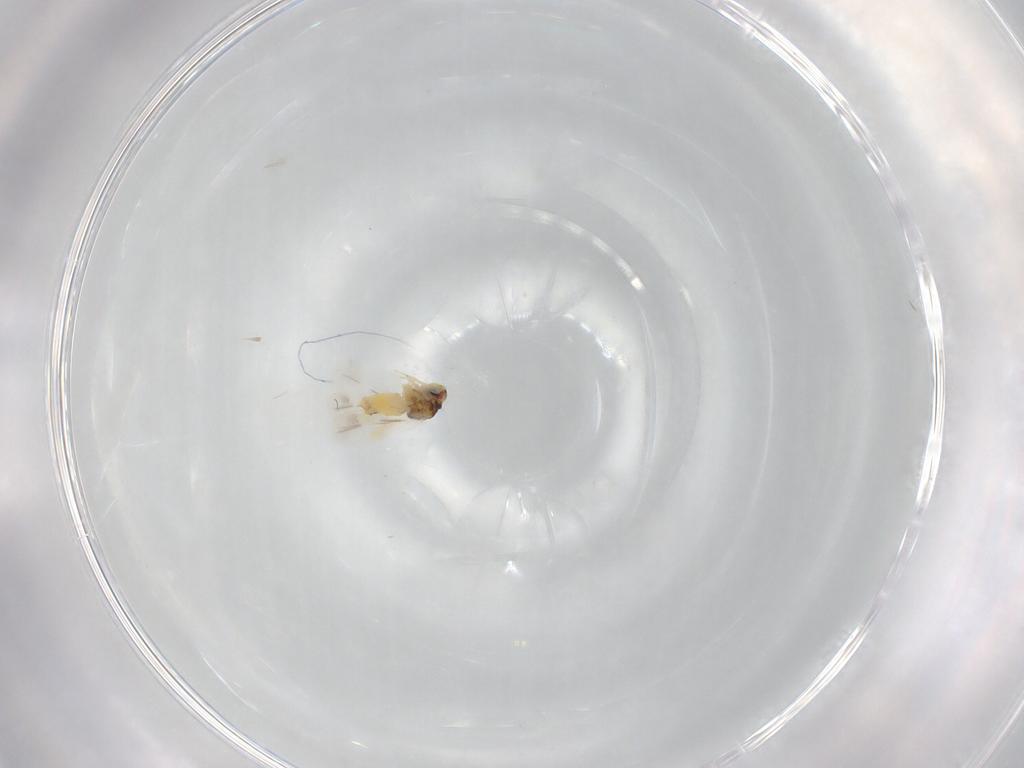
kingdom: Animalia
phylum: Arthropoda
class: Insecta
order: Hemiptera
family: Aleyrodidae
